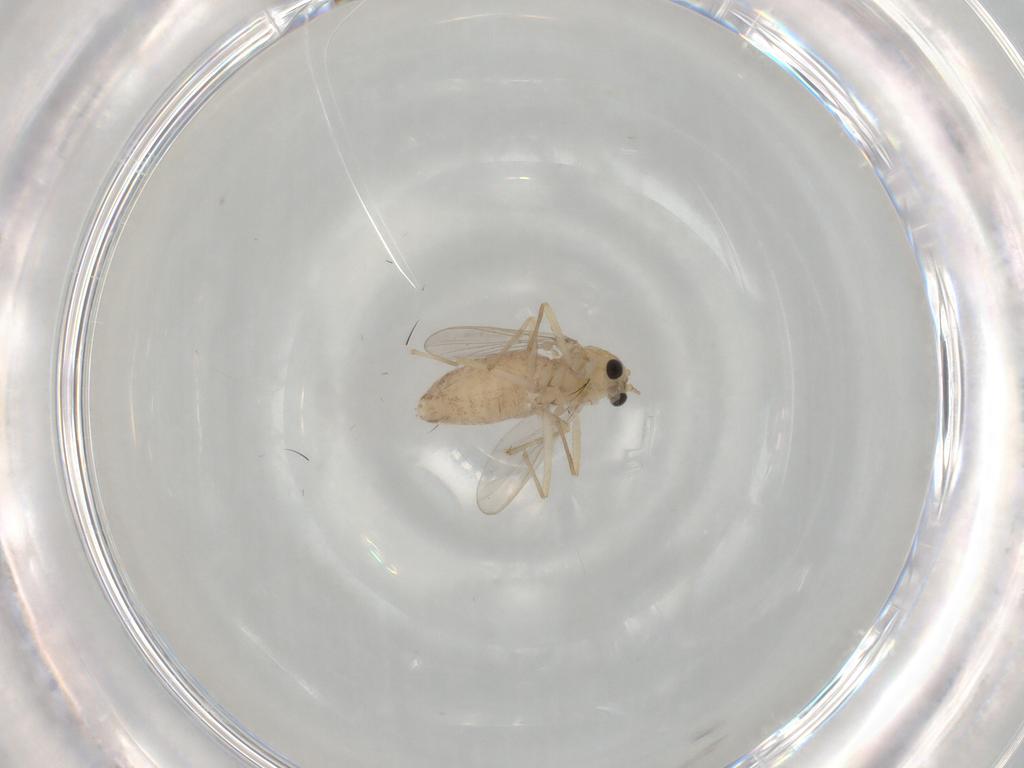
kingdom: Animalia
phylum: Arthropoda
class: Insecta
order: Diptera
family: Chironomidae
